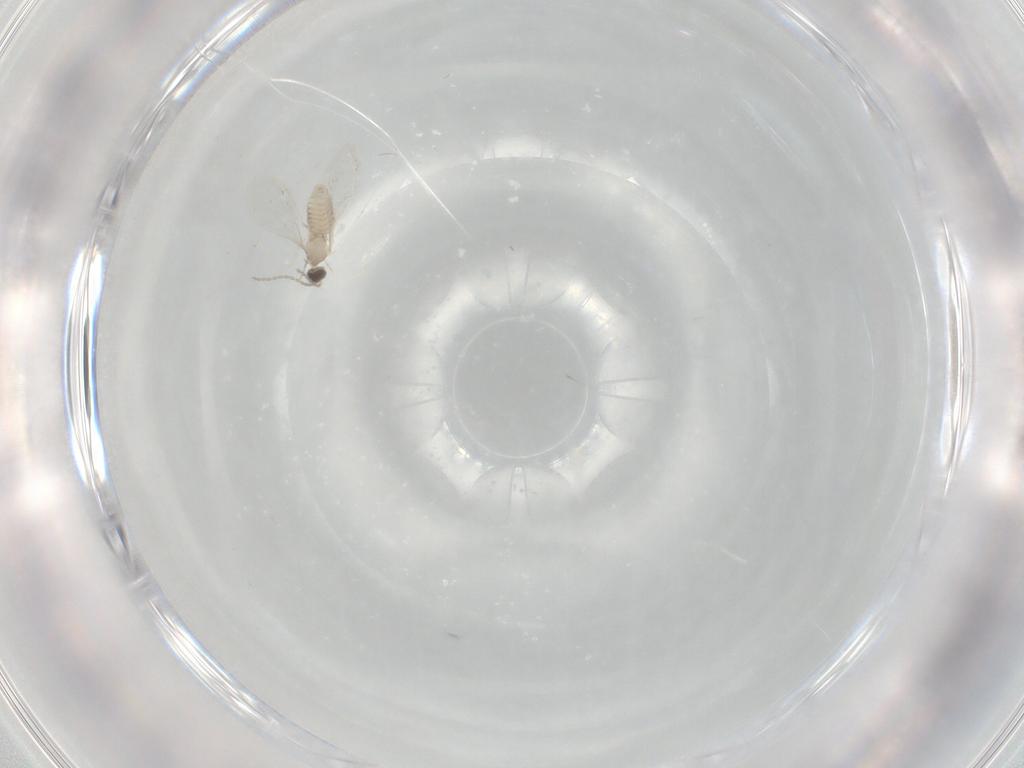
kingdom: Animalia
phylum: Arthropoda
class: Insecta
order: Diptera
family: Cecidomyiidae
